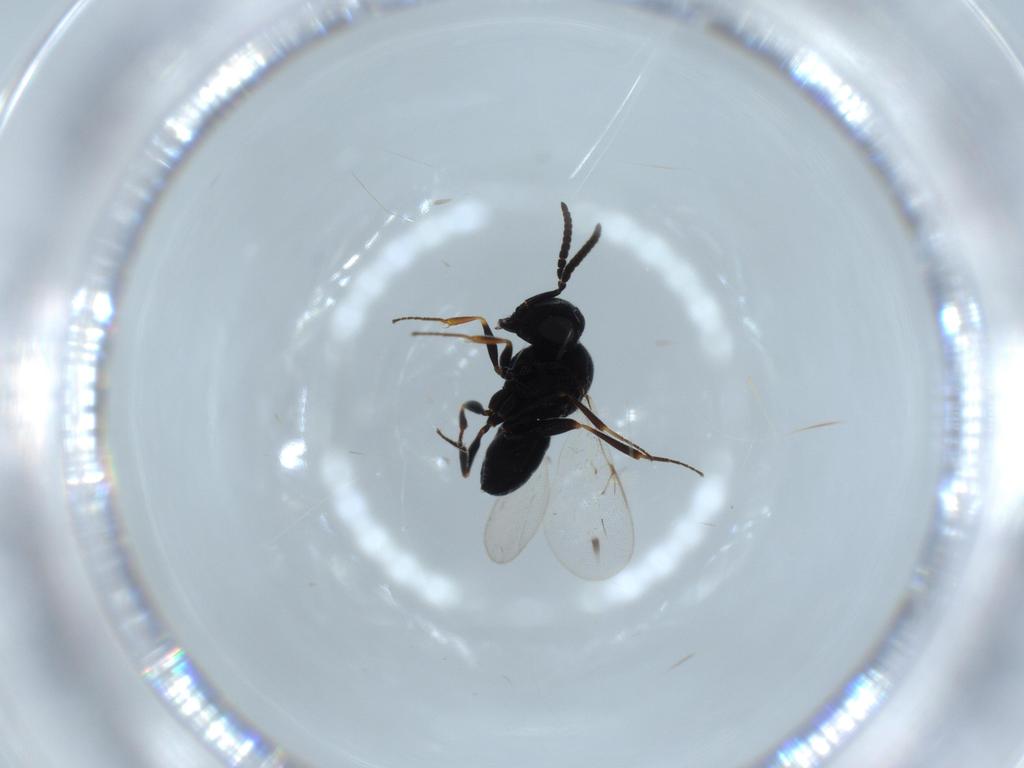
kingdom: Animalia
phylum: Arthropoda
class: Insecta
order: Hymenoptera
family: Scelionidae
